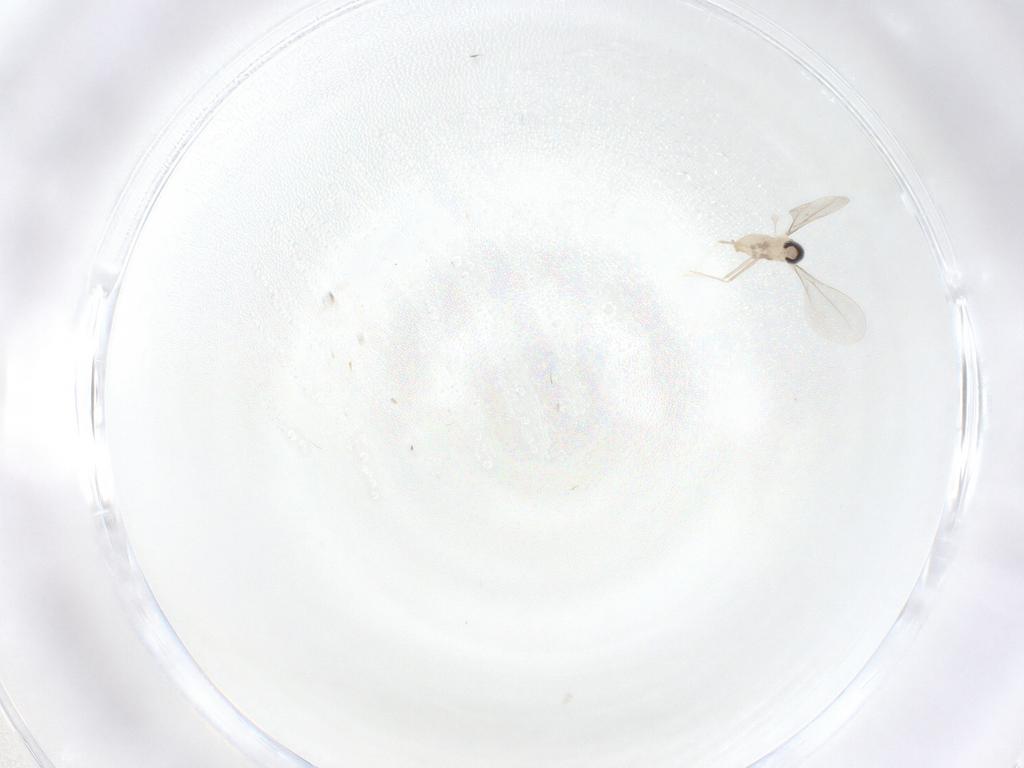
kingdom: Animalia
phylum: Arthropoda
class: Insecta
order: Diptera
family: Cecidomyiidae
